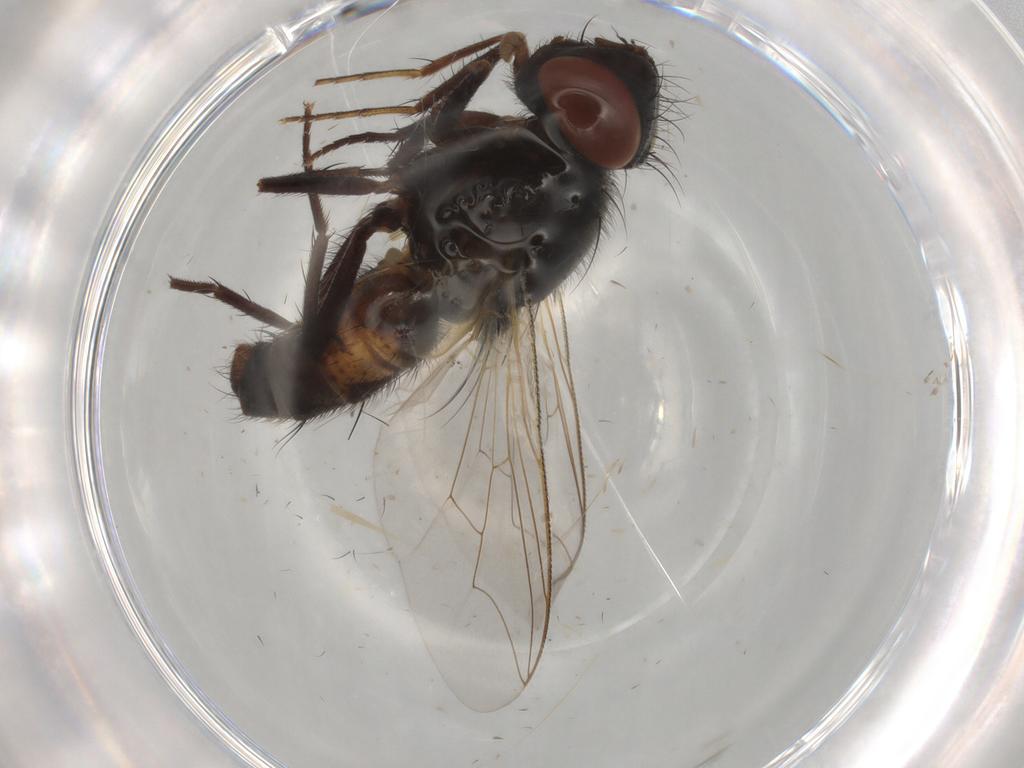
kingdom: Animalia
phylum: Arthropoda
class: Insecta
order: Diptera
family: Sarcophagidae
